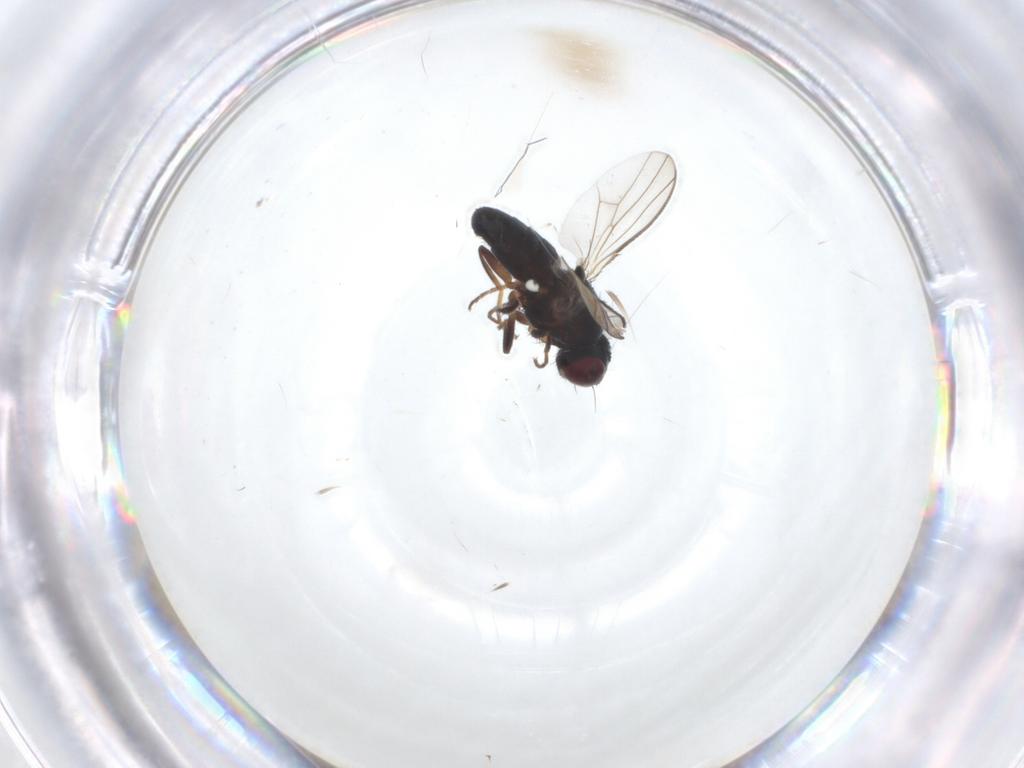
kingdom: Animalia
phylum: Arthropoda
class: Insecta
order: Diptera
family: Carnidae
